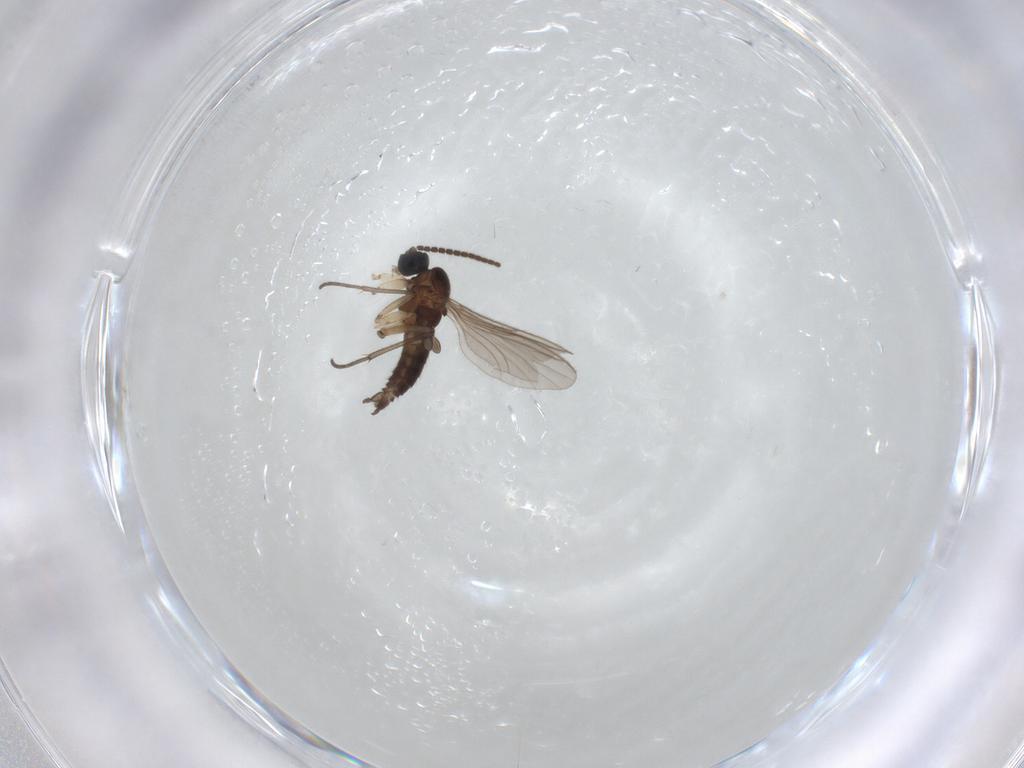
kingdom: Animalia
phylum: Arthropoda
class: Insecta
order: Diptera
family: Sciaridae
